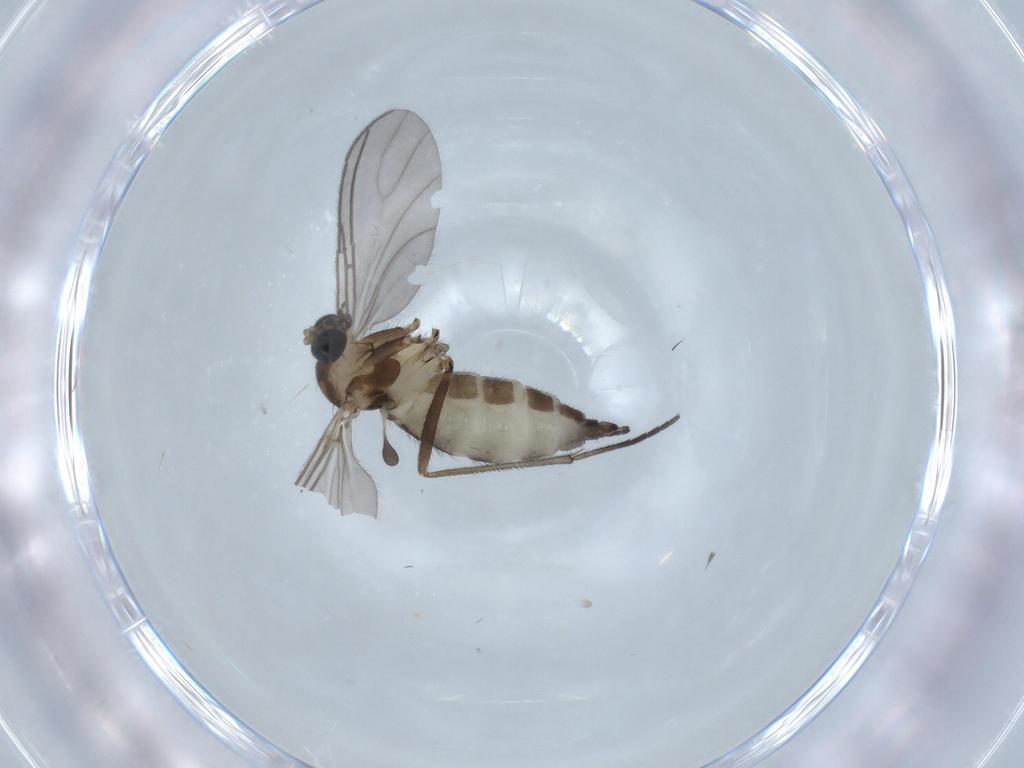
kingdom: Animalia
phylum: Arthropoda
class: Insecta
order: Diptera
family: Sciaridae
